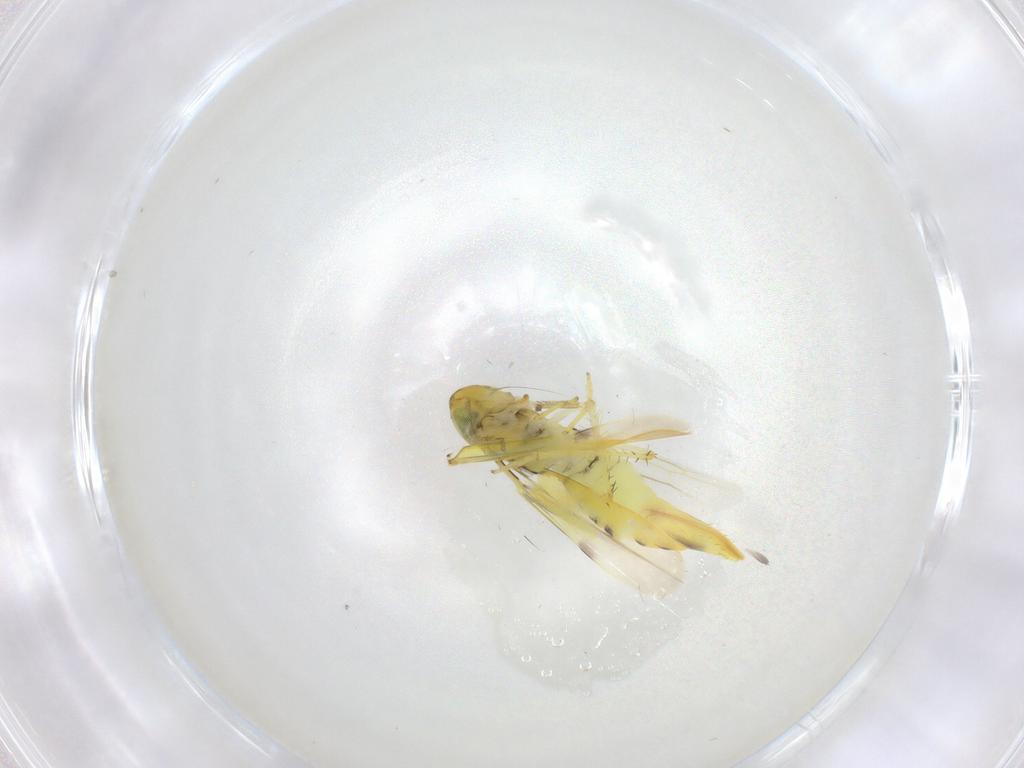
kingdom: Animalia
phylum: Arthropoda
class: Insecta
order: Hemiptera
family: Cicadellidae
